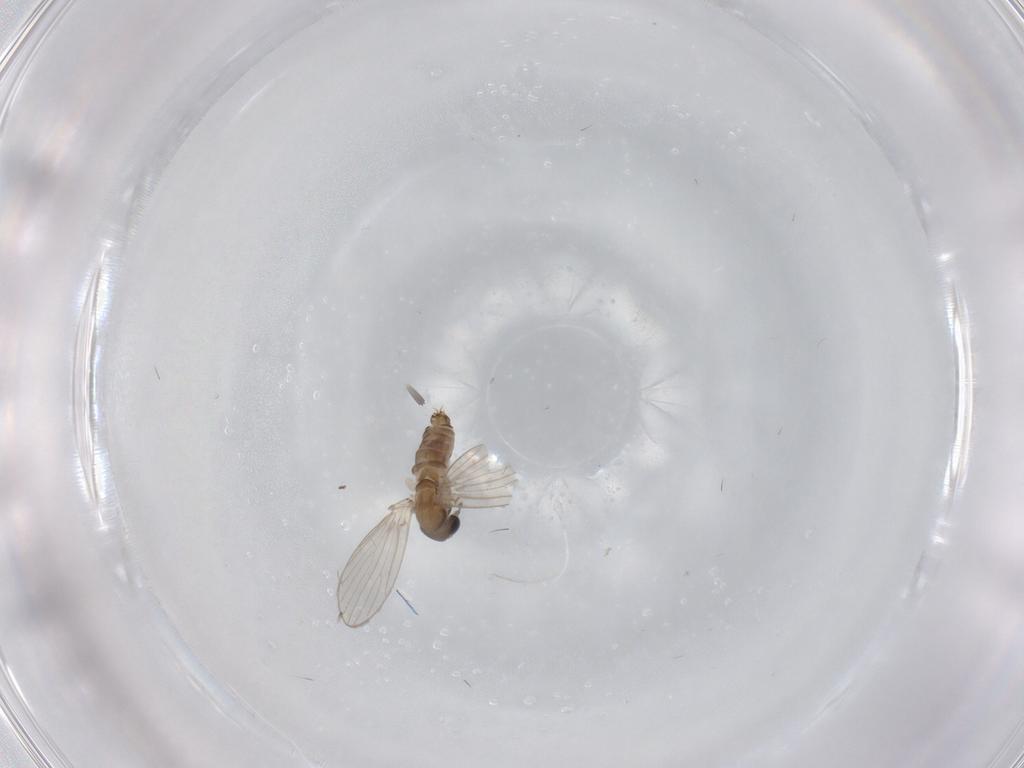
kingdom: Animalia
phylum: Arthropoda
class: Insecta
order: Diptera
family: Psychodidae
